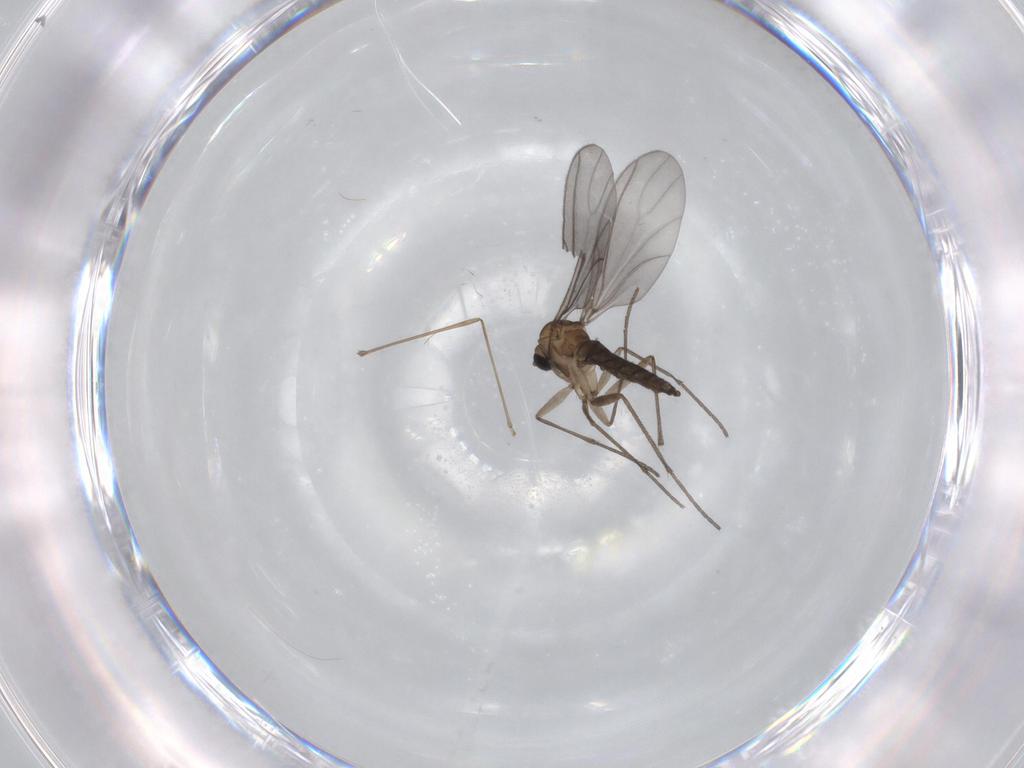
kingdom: Animalia
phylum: Arthropoda
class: Insecta
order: Diptera
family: Sciaridae
